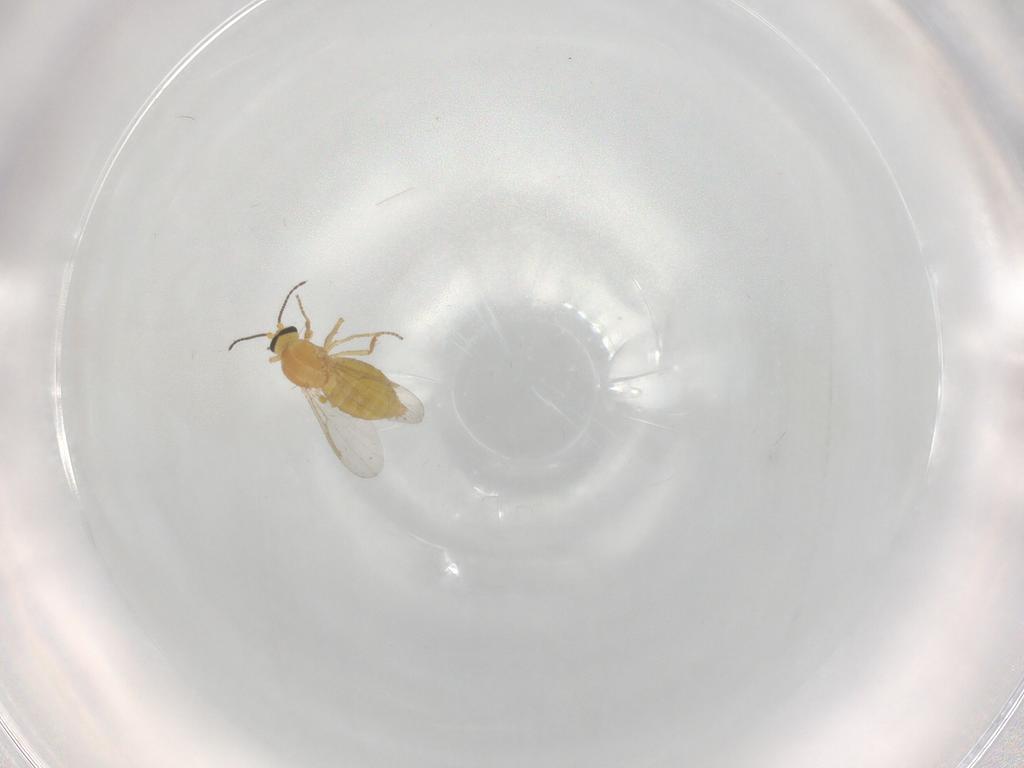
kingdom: Animalia
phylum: Arthropoda
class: Insecta
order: Diptera
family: Ceratopogonidae
